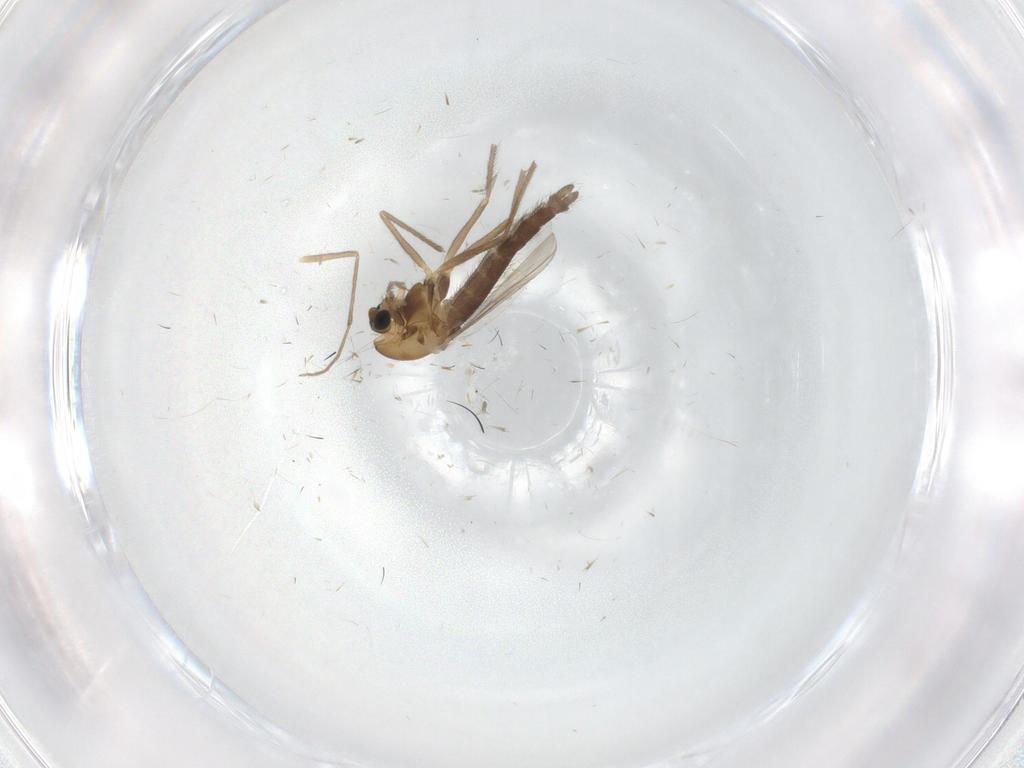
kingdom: Animalia
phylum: Arthropoda
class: Insecta
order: Diptera
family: Chironomidae
